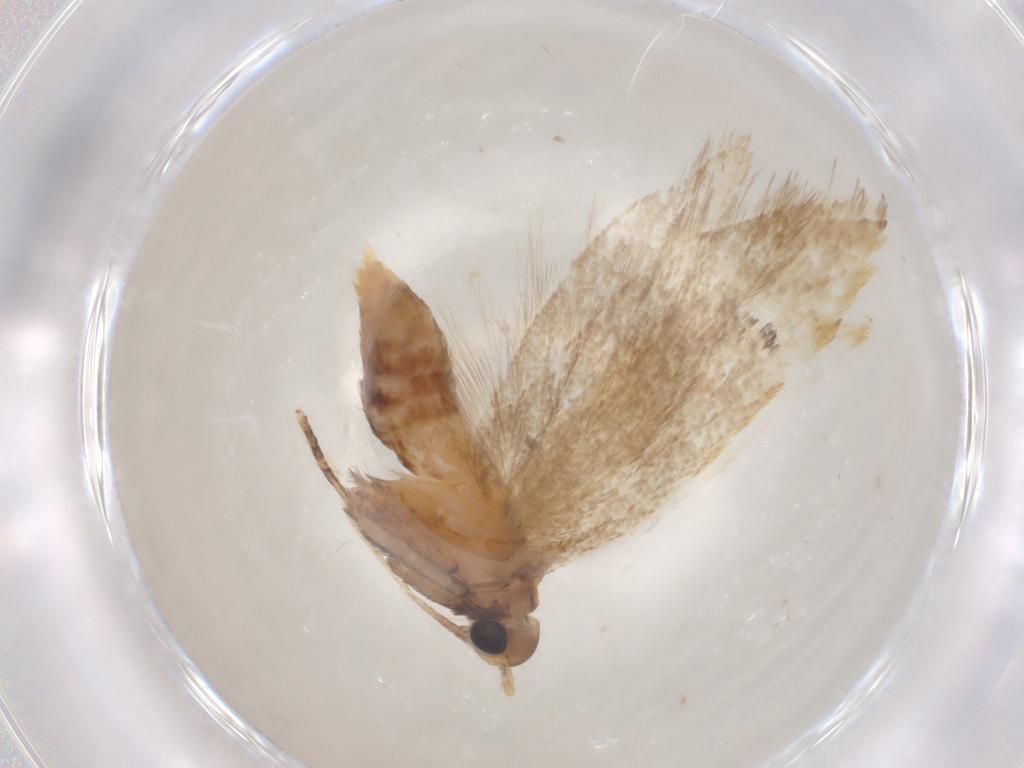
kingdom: Animalia
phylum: Arthropoda
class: Insecta
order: Lepidoptera
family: Lecithoceridae
